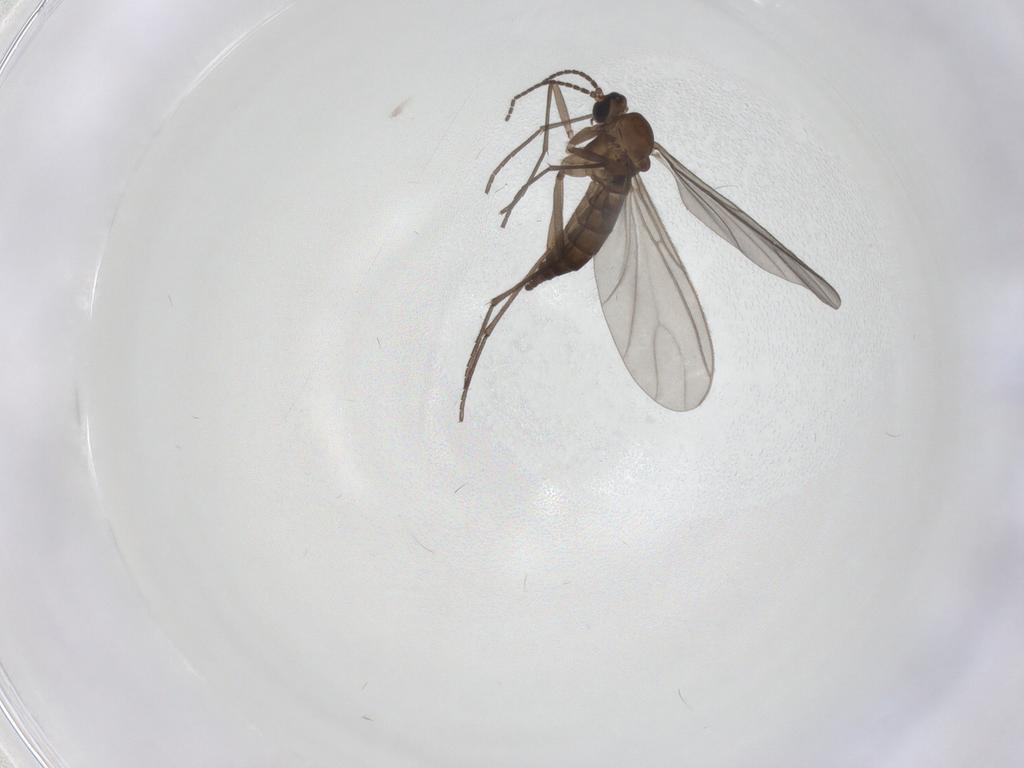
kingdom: Animalia
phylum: Arthropoda
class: Insecta
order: Diptera
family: Sciaridae
